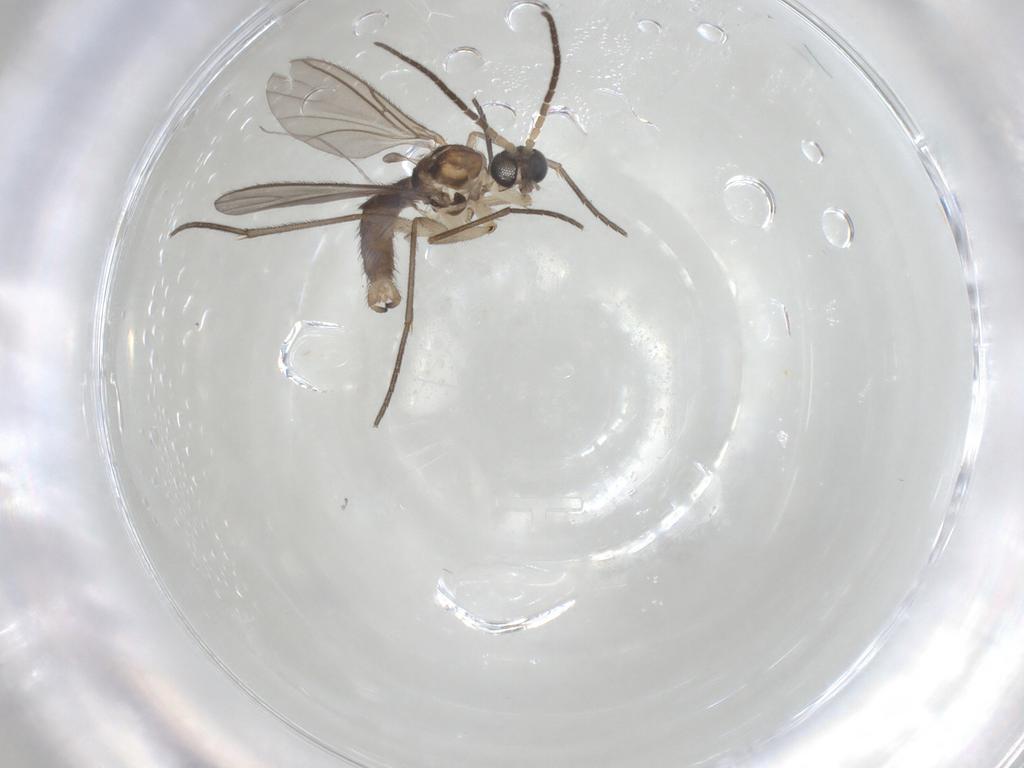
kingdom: Animalia
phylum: Arthropoda
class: Insecta
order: Diptera
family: Sciaridae
